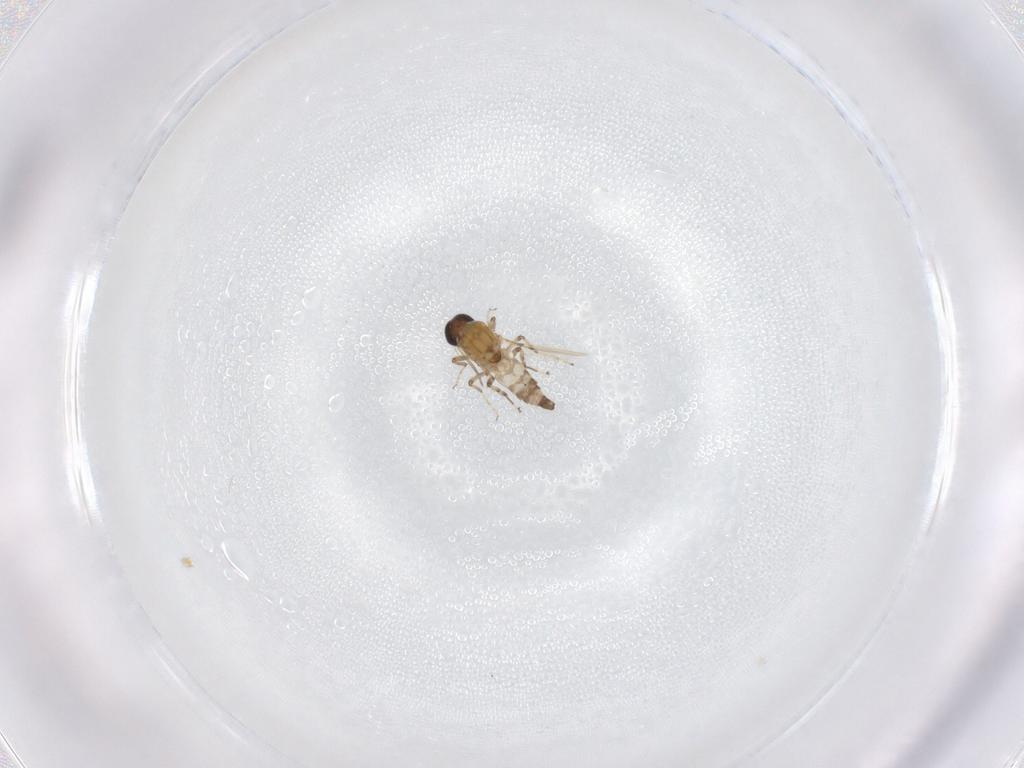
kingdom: Animalia
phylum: Arthropoda
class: Insecta
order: Diptera
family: Ceratopogonidae
